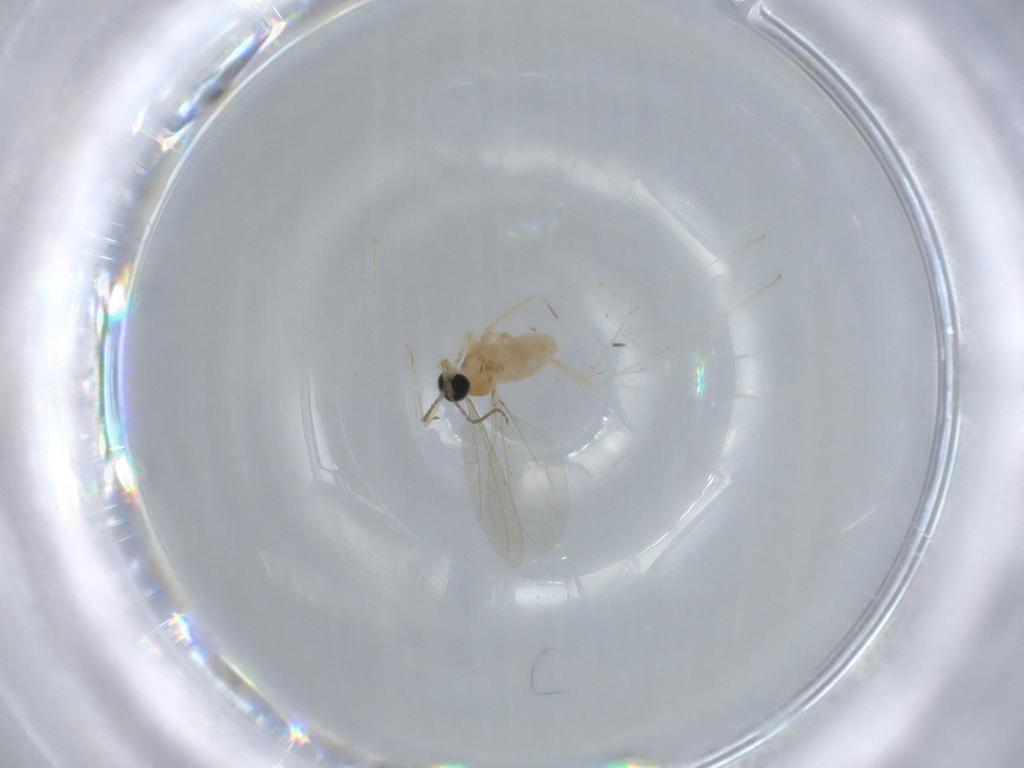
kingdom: Animalia
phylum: Arthropoda
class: Insecta
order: Diptera
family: Cecidomyiidae
